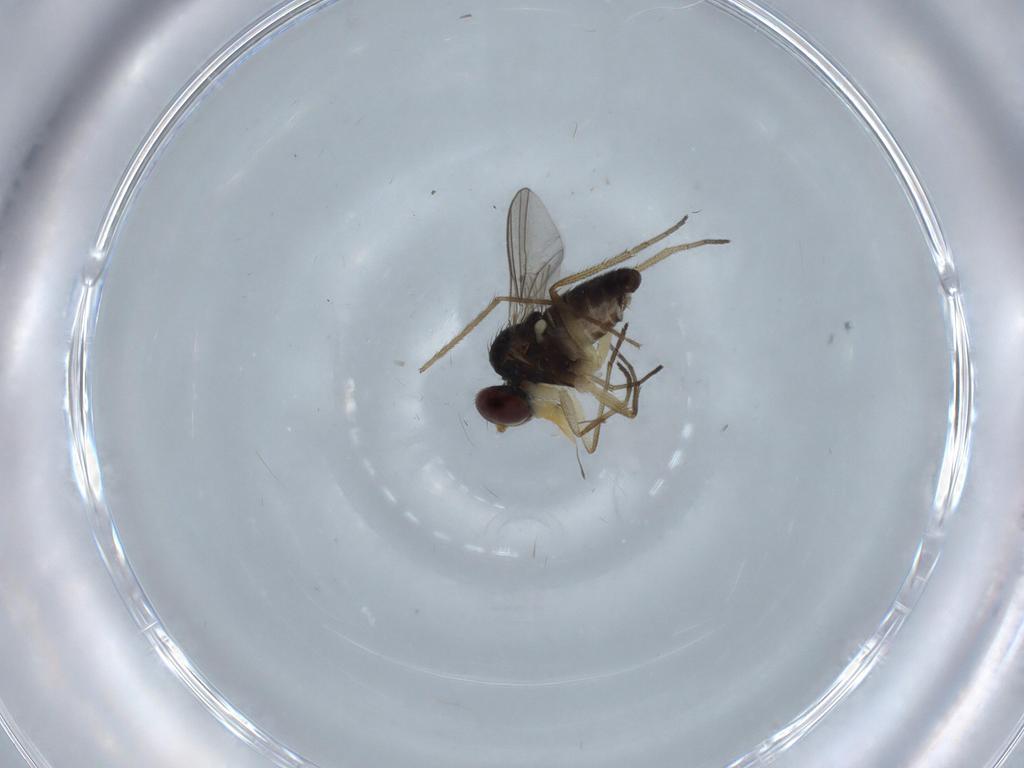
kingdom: Animalia
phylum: Arthropoda
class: Insecta
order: Diptera
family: Dolichopodidae
